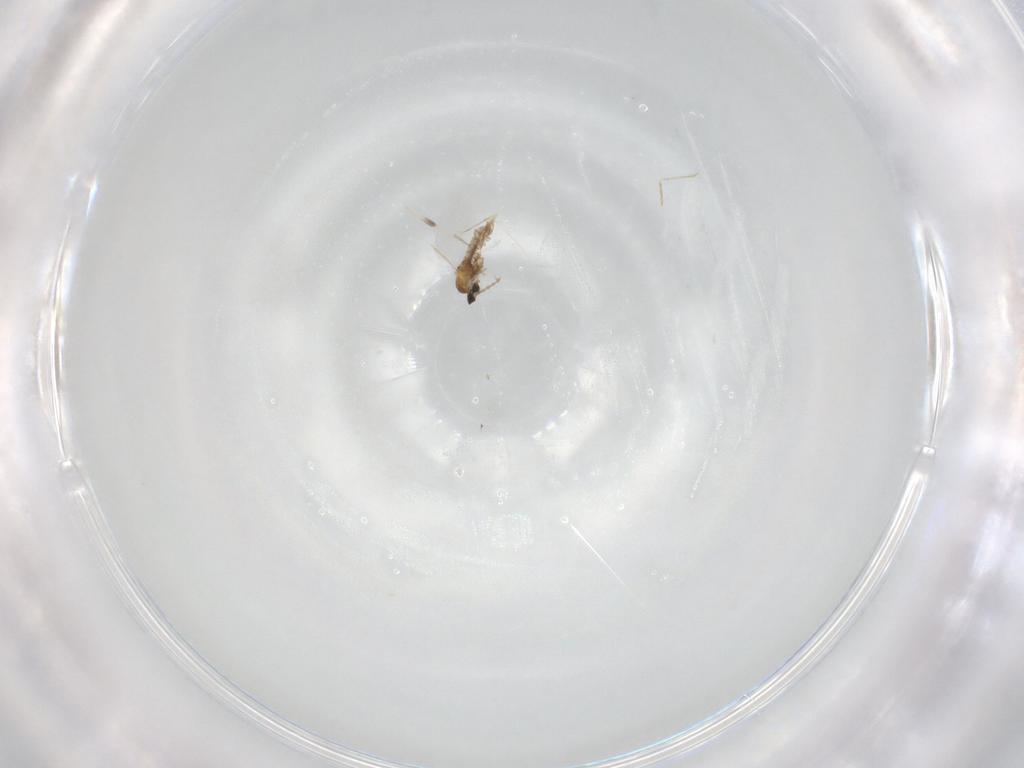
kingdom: Animalia
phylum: Arthropoda
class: Insecta
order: Diptera
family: Cecidomyiidae
